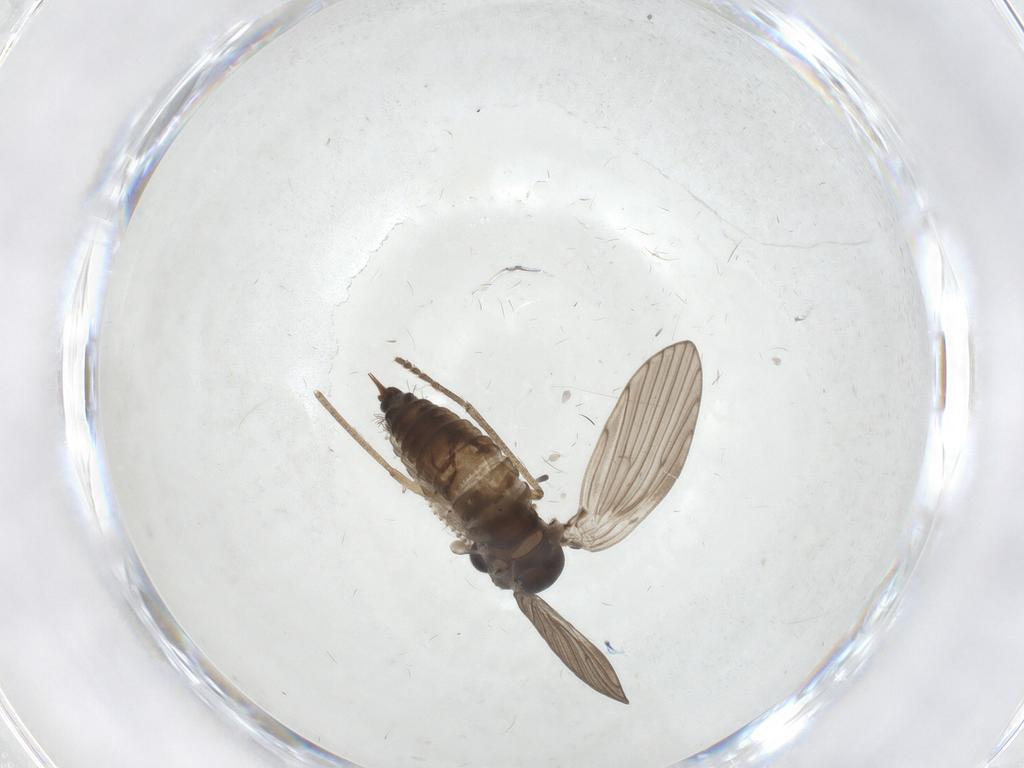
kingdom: Animalia
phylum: Arthropoda
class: Insecta
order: Diptera
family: Psychodidae
